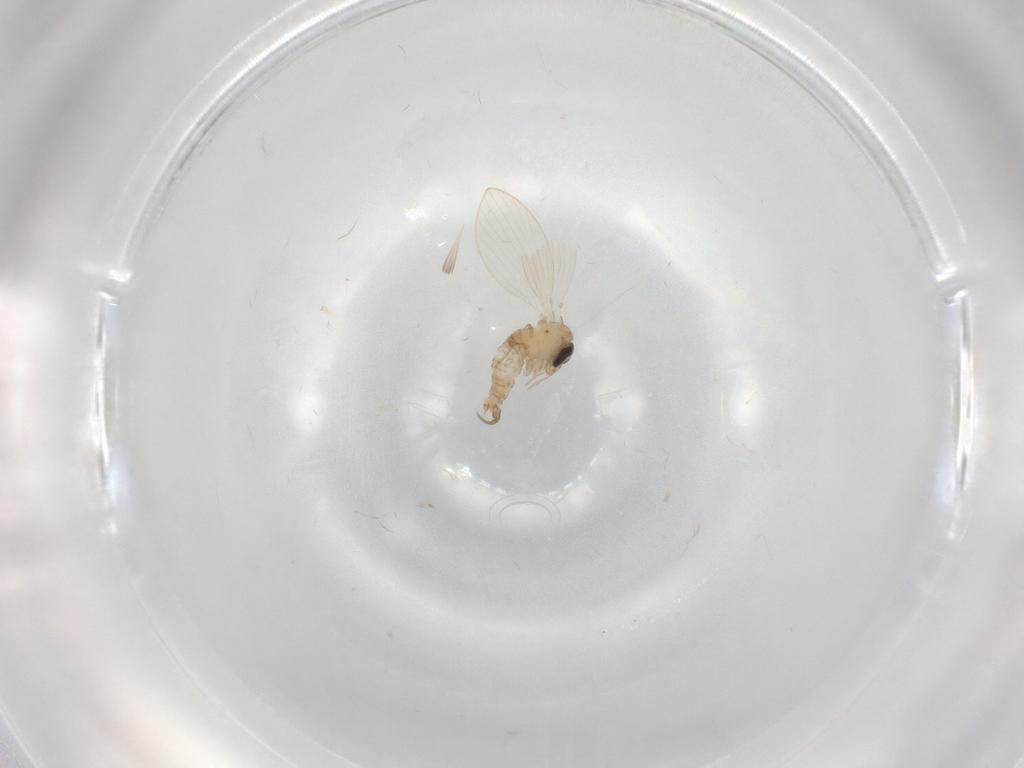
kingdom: Animalia
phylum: Arthropoda
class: Insecta
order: Diptera
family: Psychodidae
